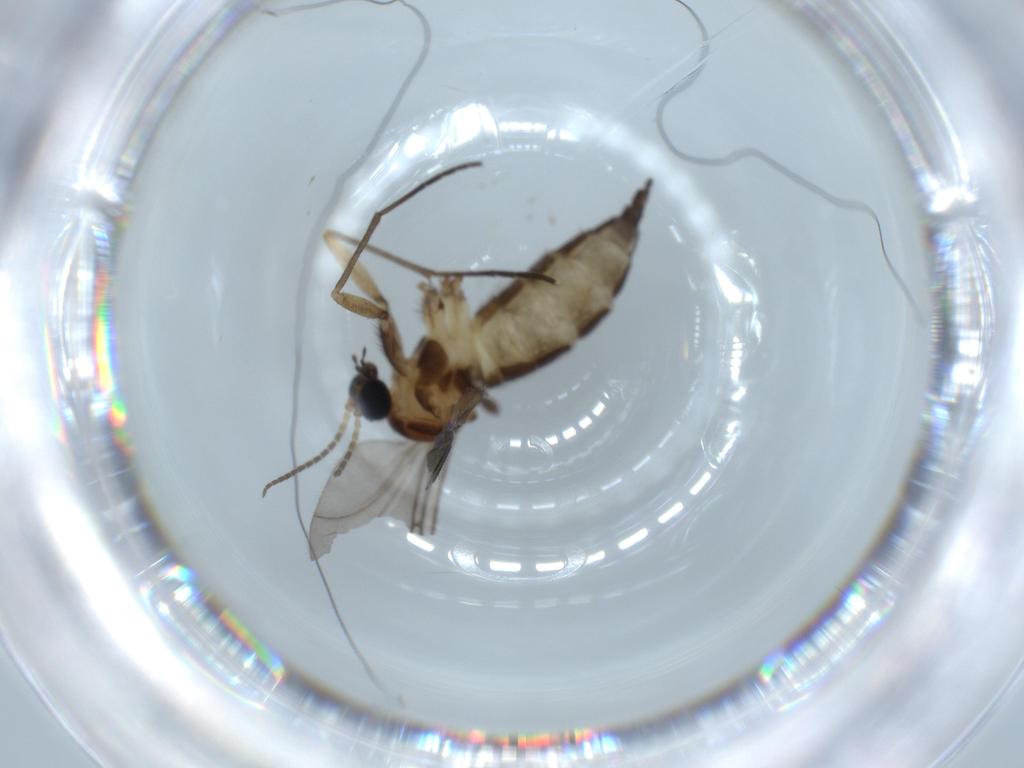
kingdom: Animalia
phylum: Arthropoda
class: Insecta
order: Diptera
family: Sciaridae
